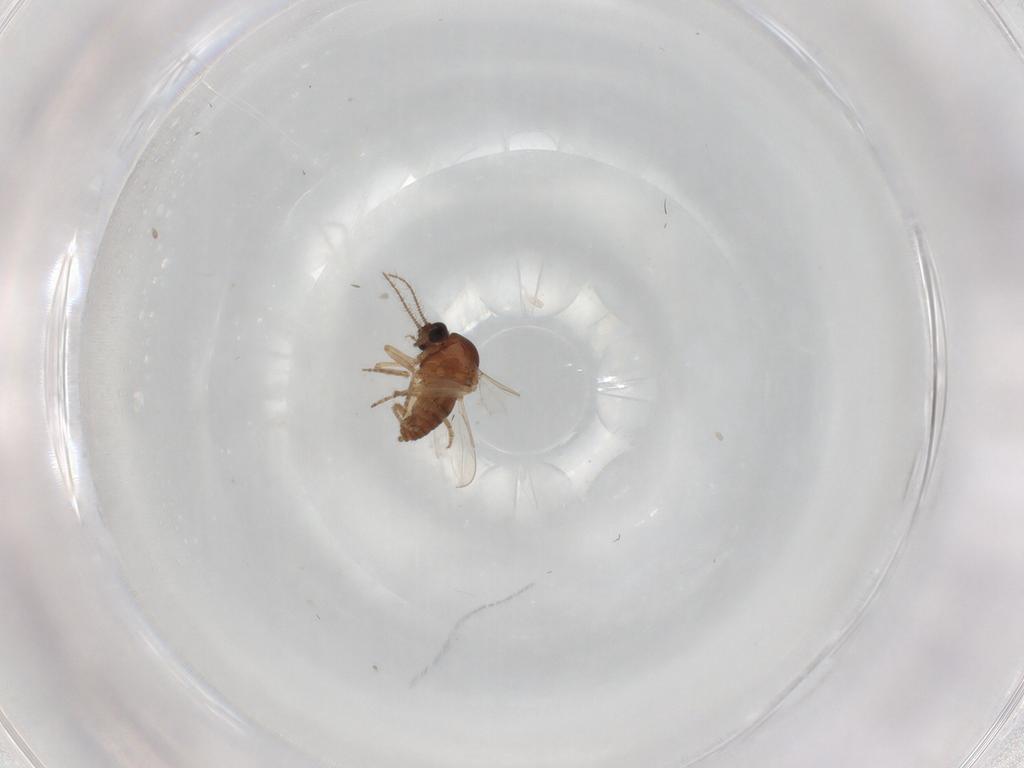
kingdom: Animalia
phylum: Arthropoda
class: Insecta
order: Diptera
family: Ceratopogonidae
